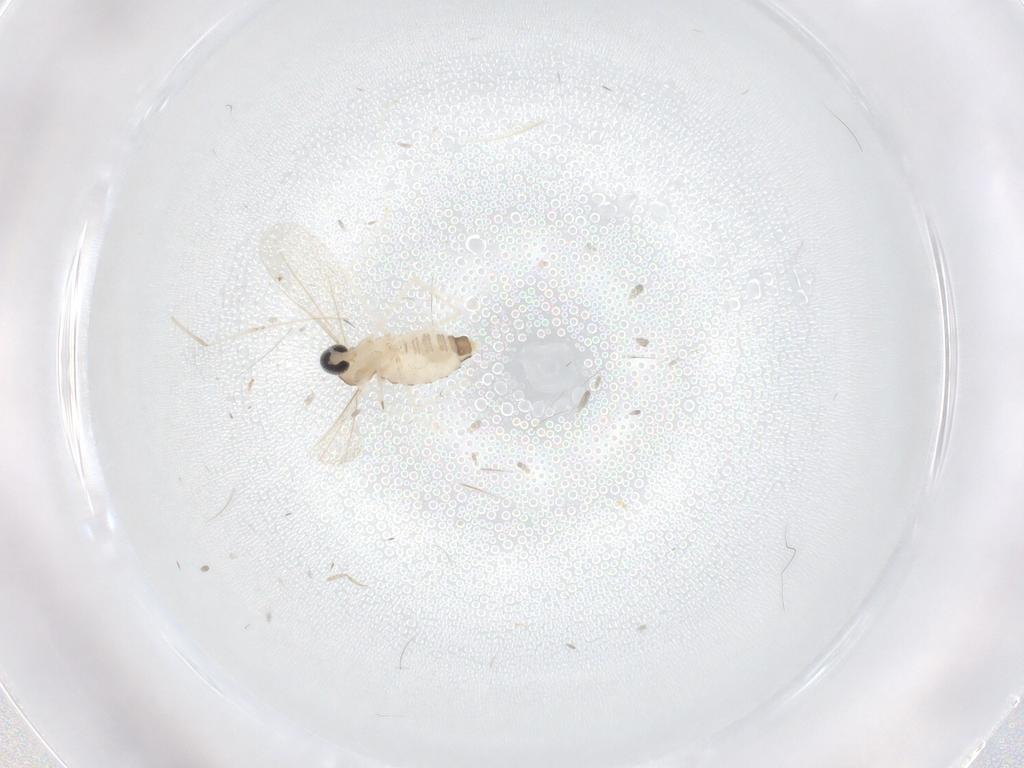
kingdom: Animalia
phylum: Arthropoda
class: Insecta
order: Diptera
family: Cecidomyiidae
